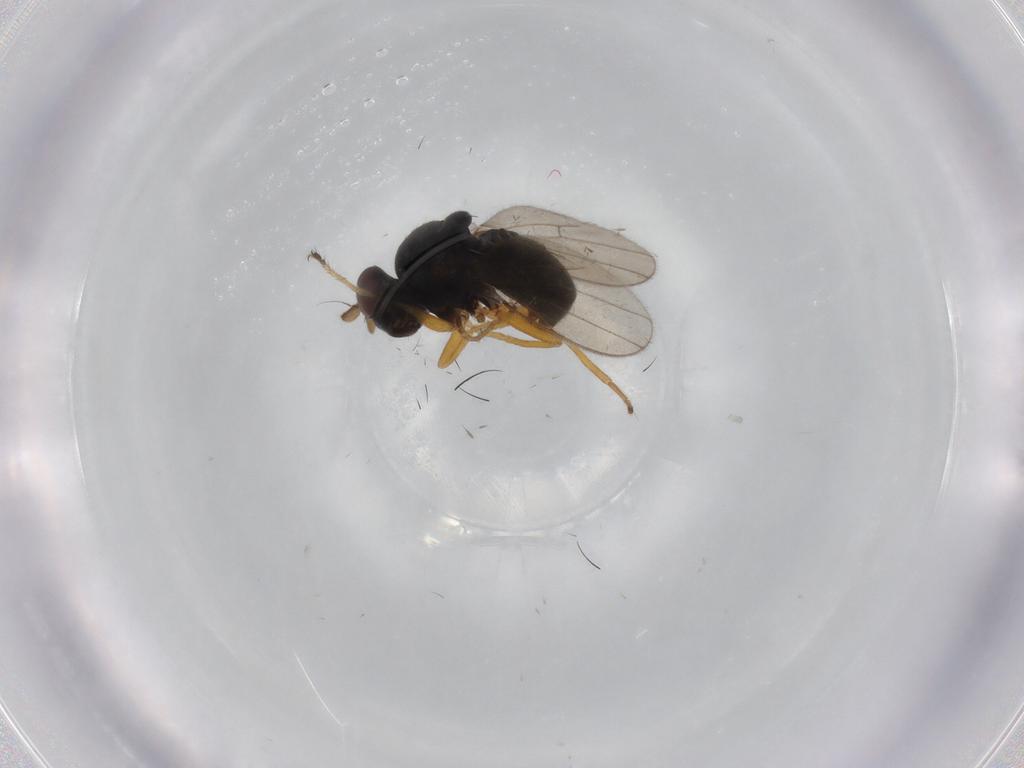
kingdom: Animalia
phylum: Arthropoda
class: Insecta
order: Diptera
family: Ephydridae
